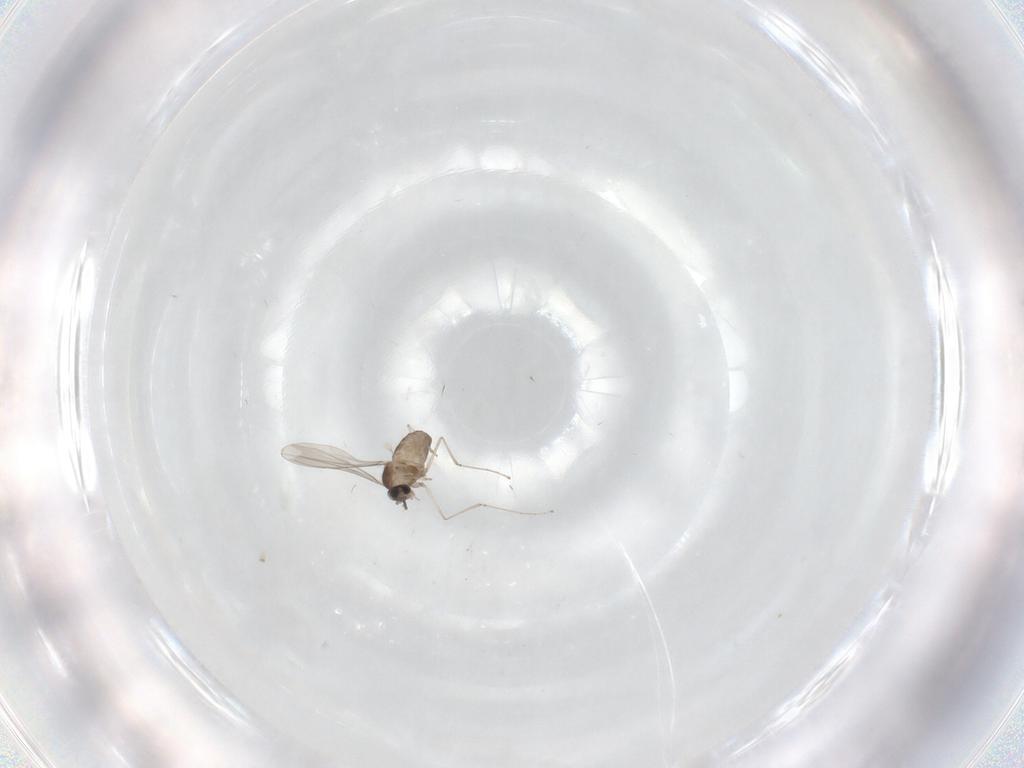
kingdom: Animalia
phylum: Arthropoda
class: Insecta
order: Diptera
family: Cecidomyiidae
